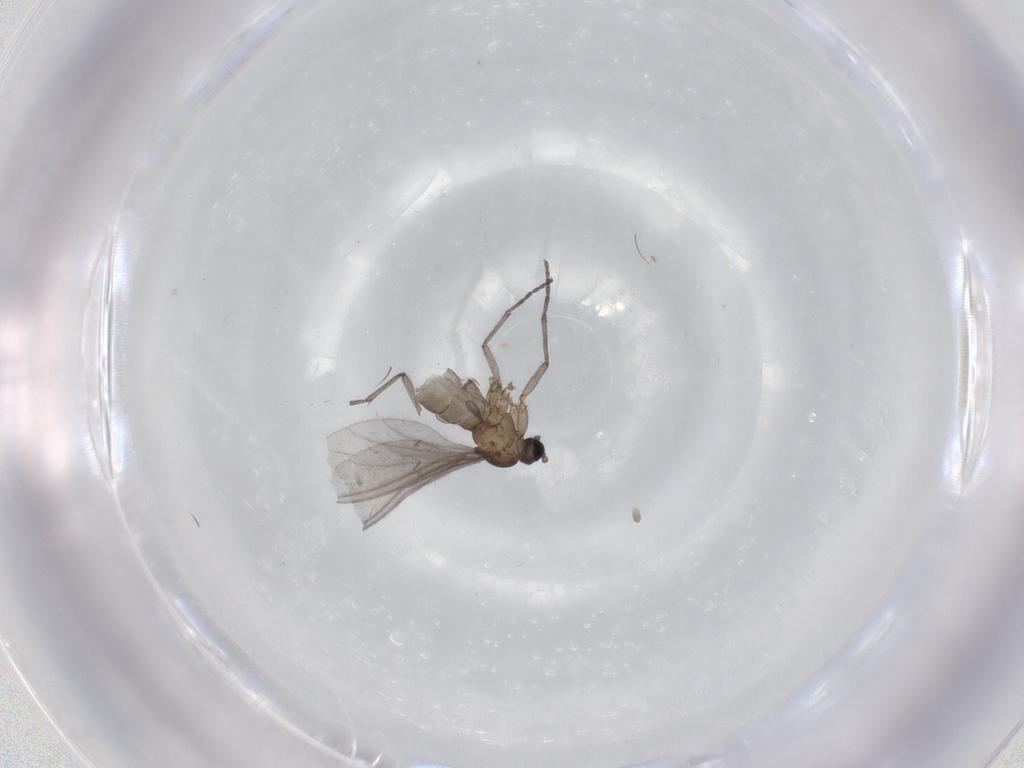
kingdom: Animalia
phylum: Arthropoda
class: Insecta
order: Diptera
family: Sciaridae
